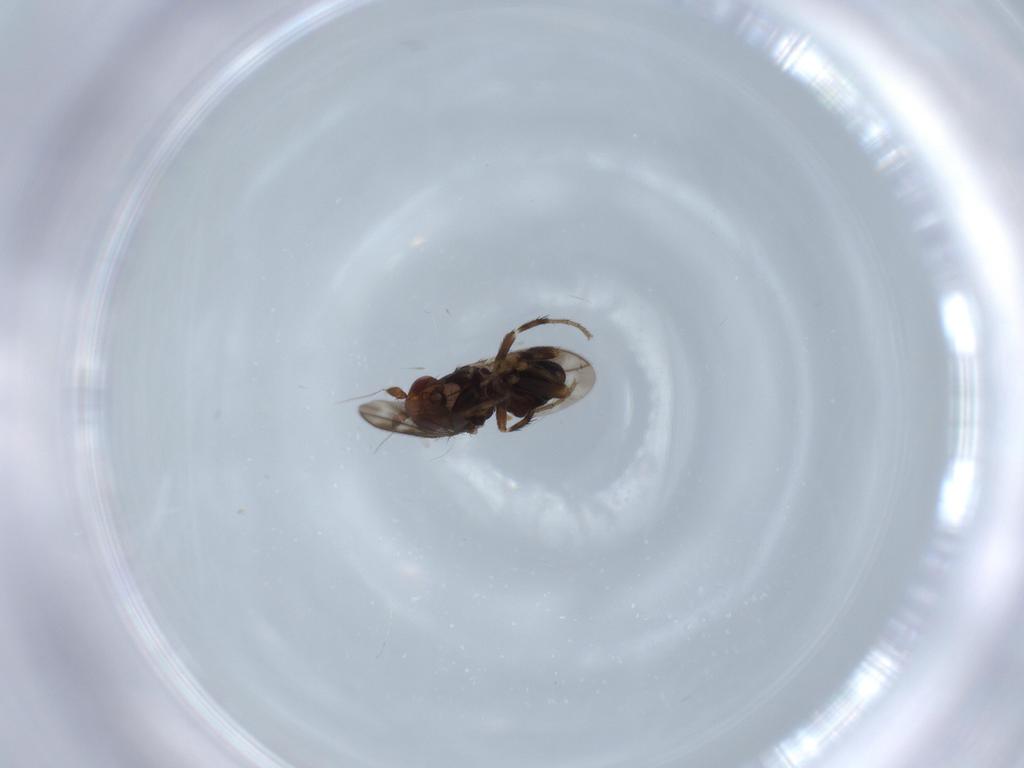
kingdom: Animalia
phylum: Arthropoda
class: Insecta
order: Diptera
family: Sphaeroceridae
